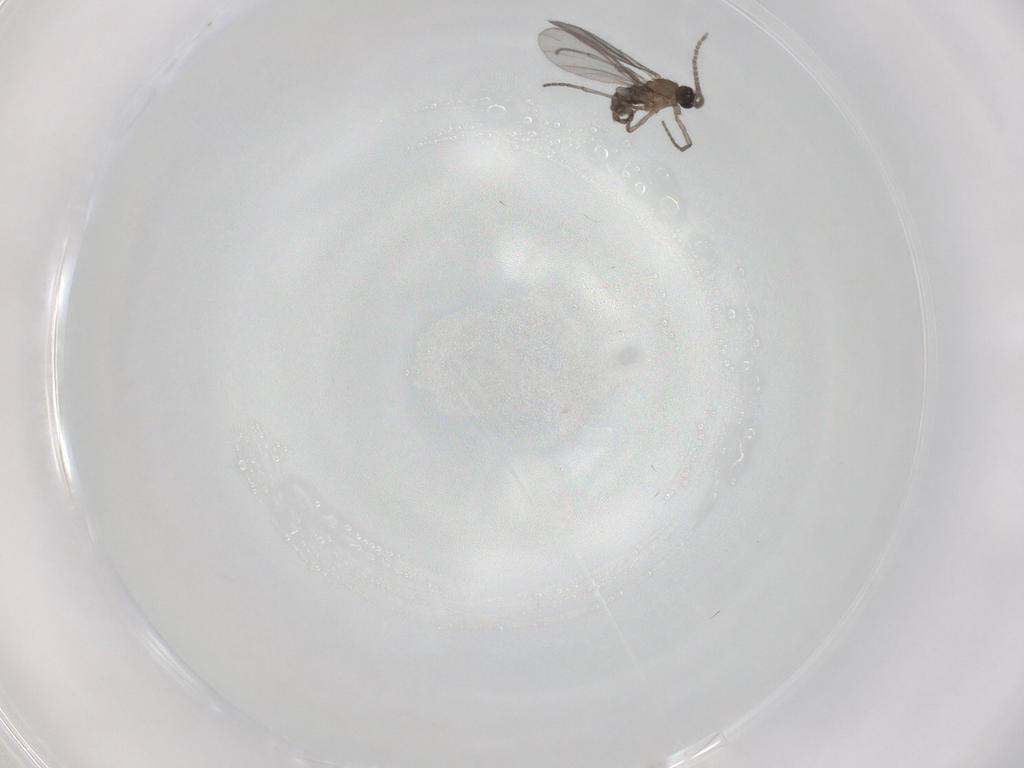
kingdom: Animalia
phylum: Arthropoda
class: Insecta
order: Diptera
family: Sciaridae
